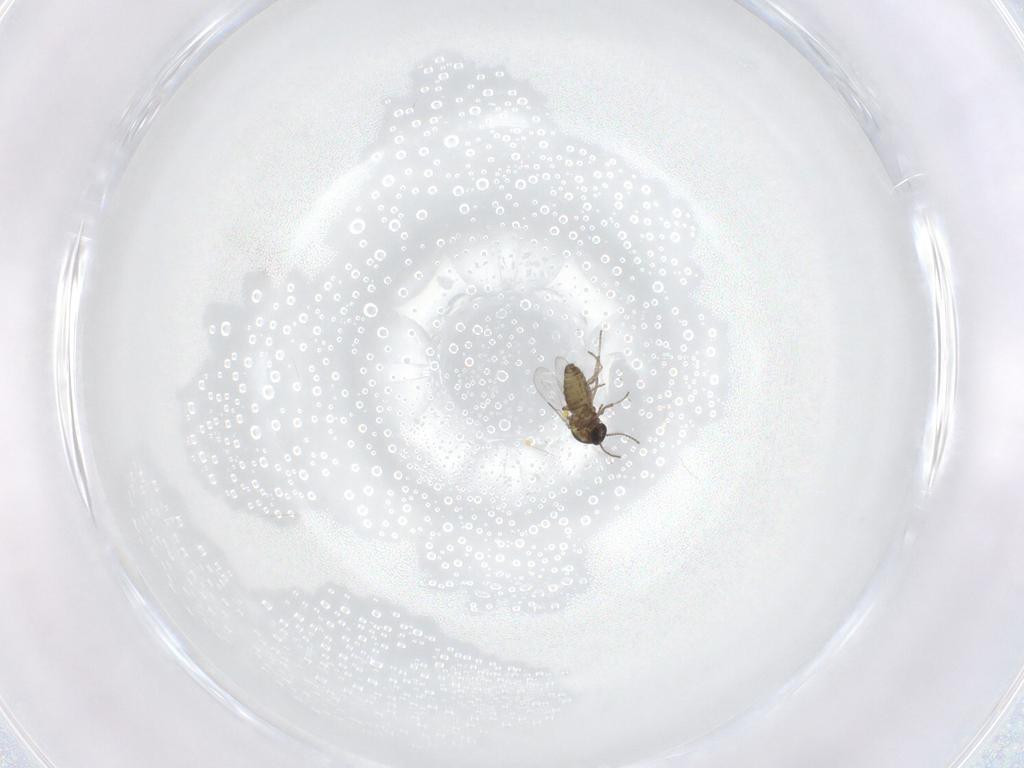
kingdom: Animalia
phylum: Arthropoda
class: Insecta
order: Diptera
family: Ceratopogonidae
